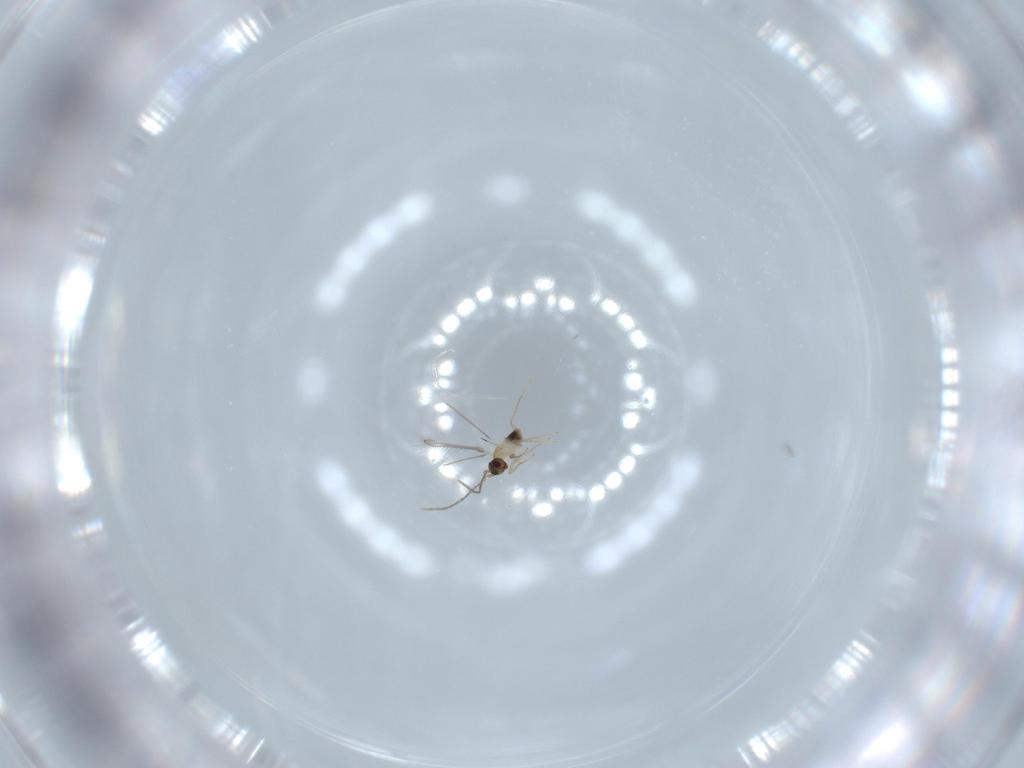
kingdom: Animalia
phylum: Arthropoda
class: Insecta
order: Hymenoptera
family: Mymaridae
